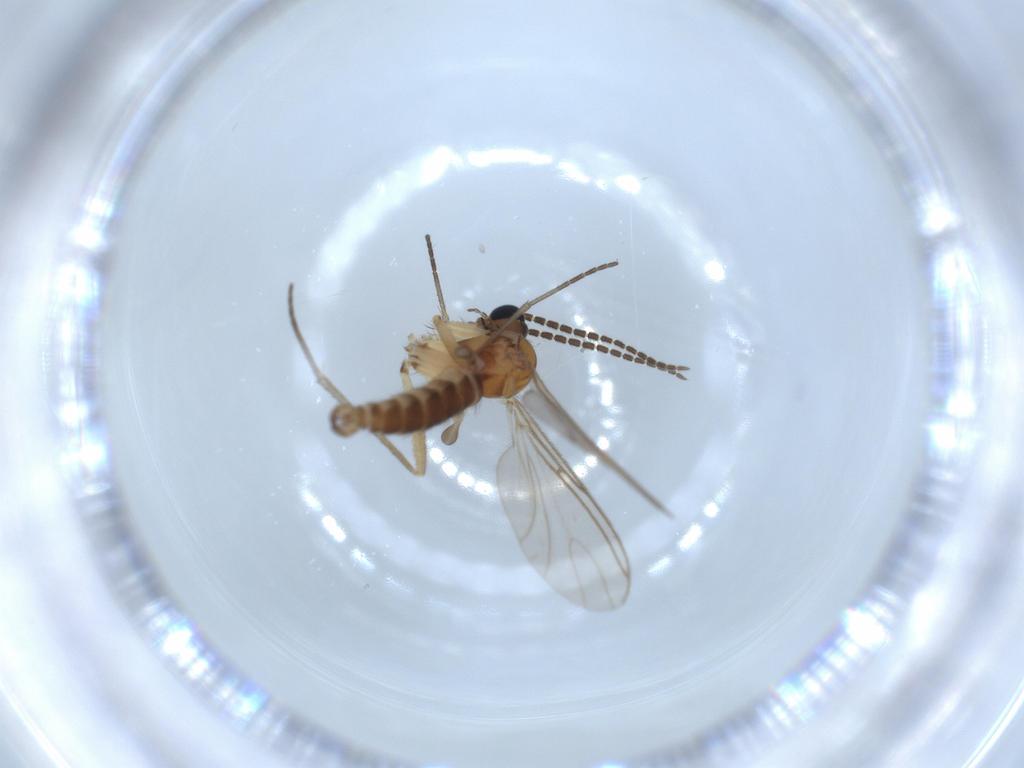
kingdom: Animalia
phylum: Arthropoda
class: Insecta
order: Diptera
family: Sciaridae
